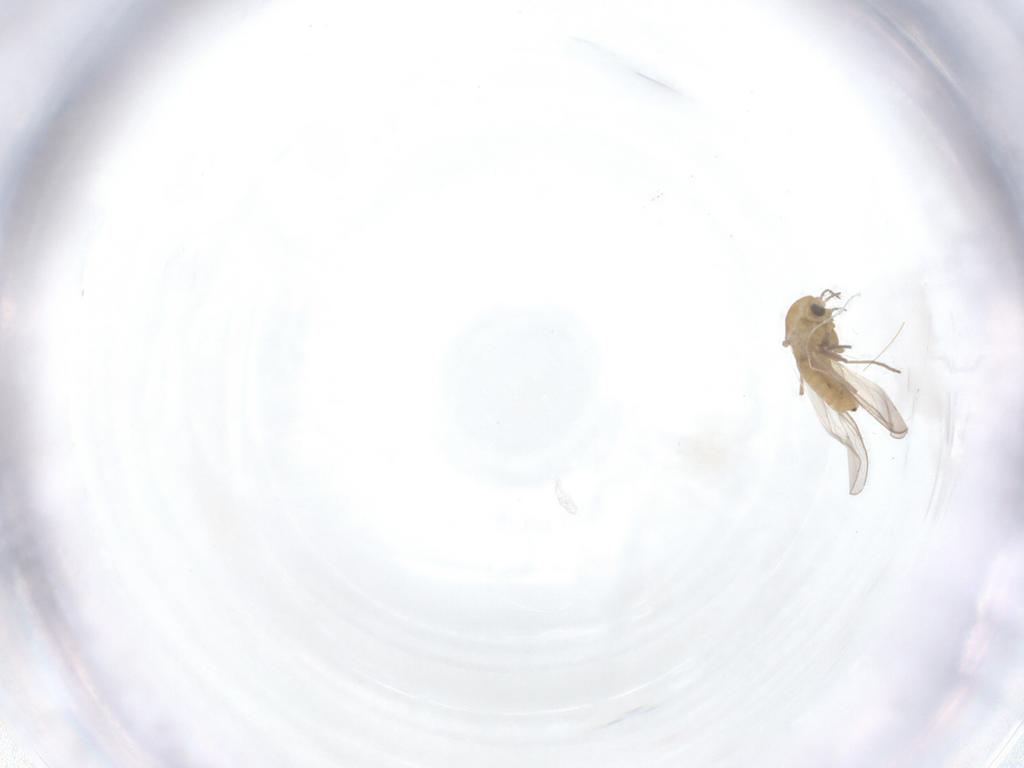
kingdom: Animalia
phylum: Arthropoda
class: Insecta
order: Diptera
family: Chironomidae
